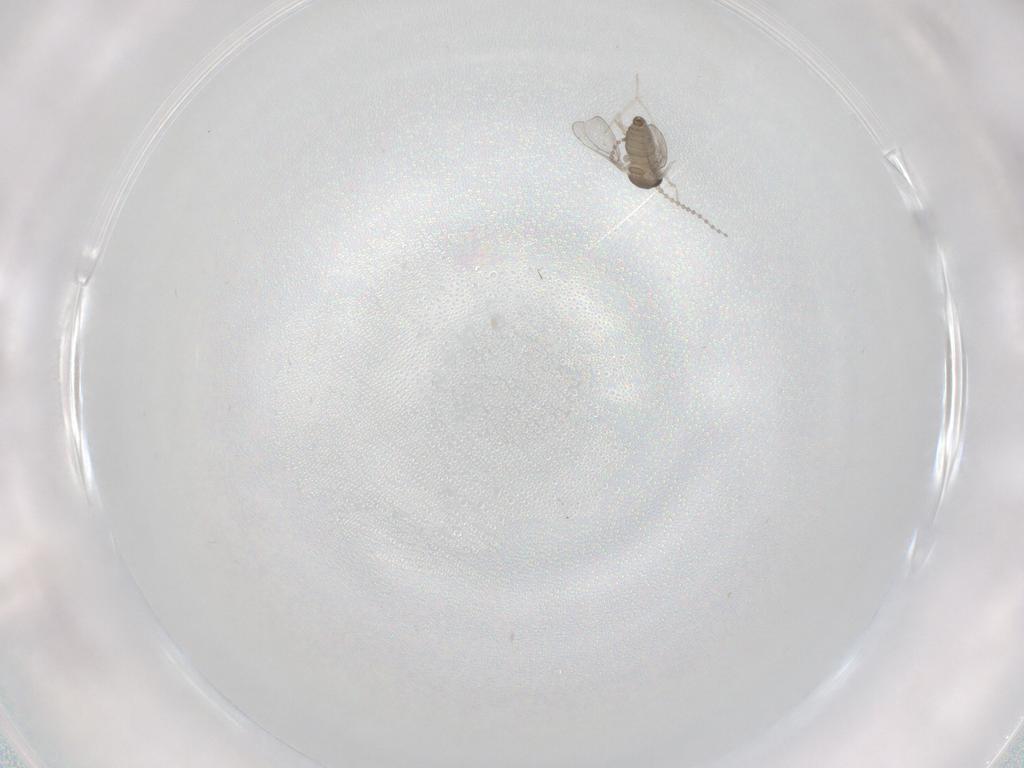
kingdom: Animalia
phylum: Arthropoda
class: Insecta
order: Diptera
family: Cecidomyiidae
